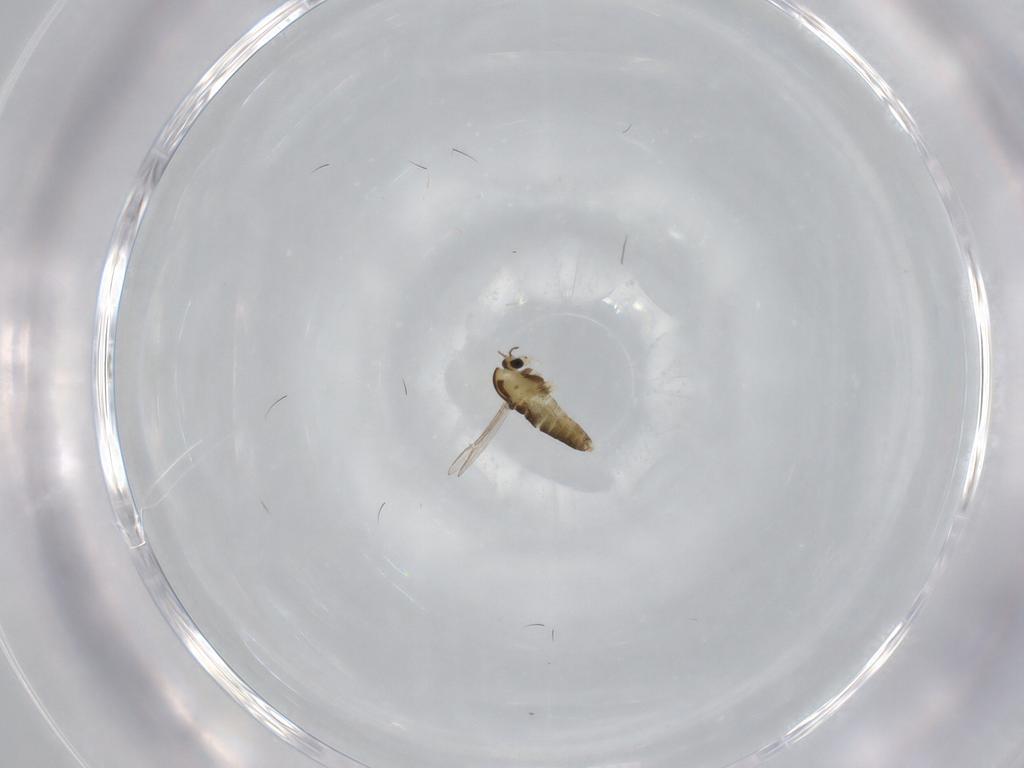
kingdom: Animalia
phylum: Arthropoda
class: Insecta
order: Diptera
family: Chironomidae
